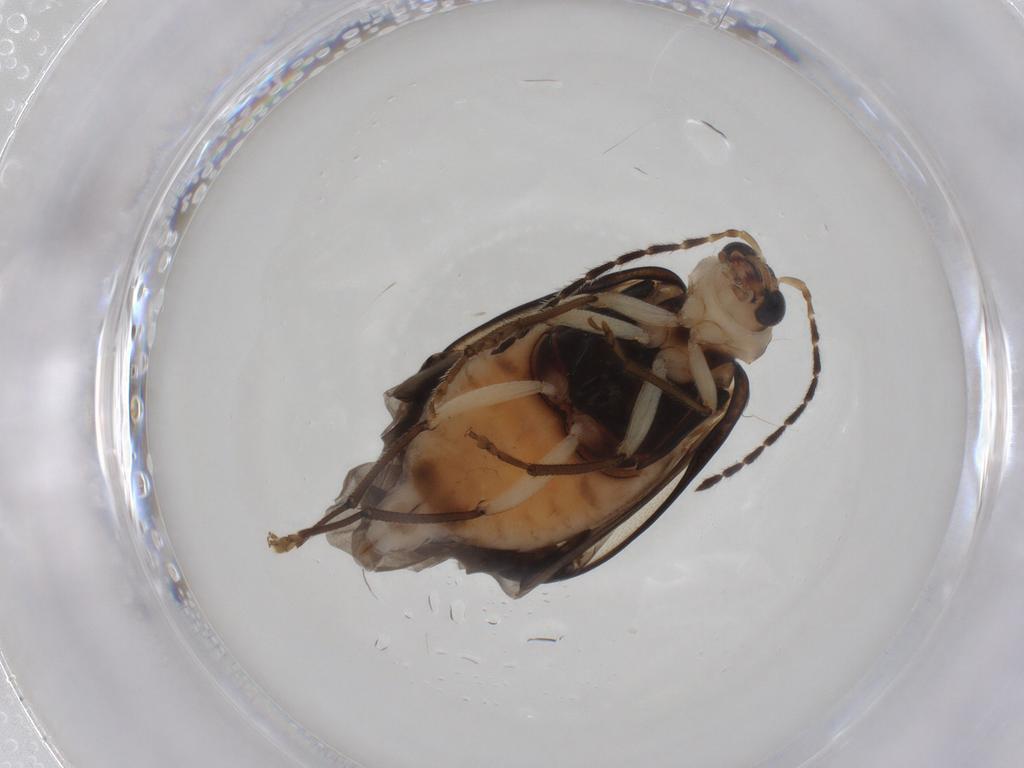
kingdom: Animalia
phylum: Arthropoda
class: Insecta
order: Coleoptera
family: Chrysomelidae
